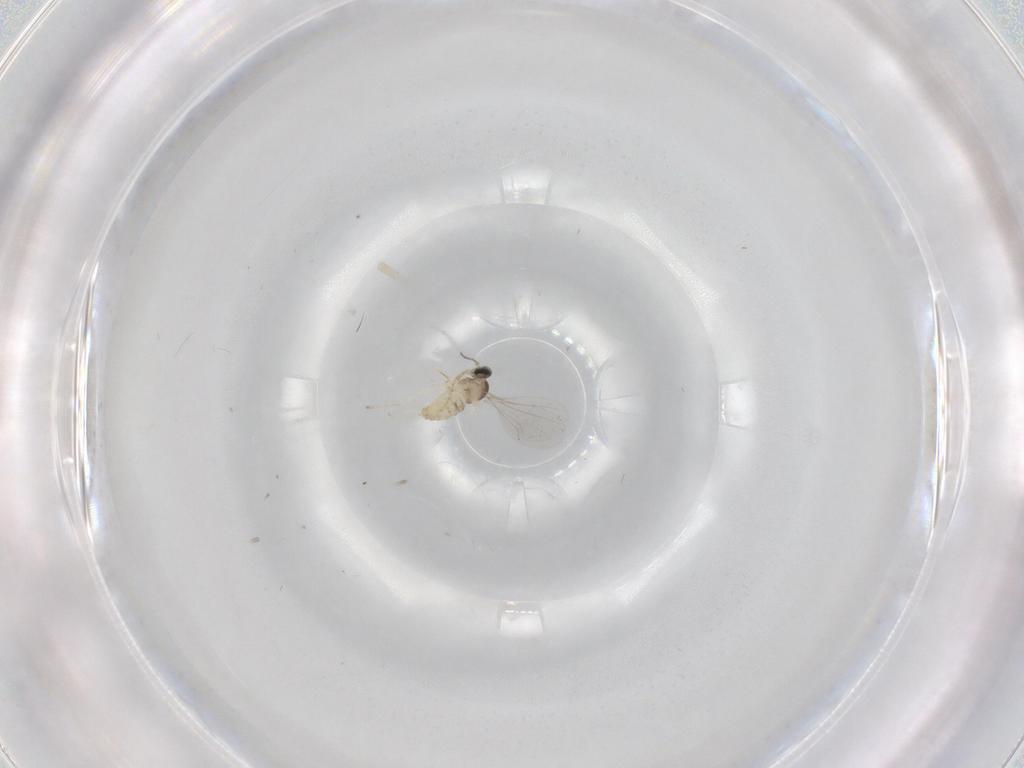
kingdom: Animalia
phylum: Arthropoda
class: Insecta
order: Diptera
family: Cecidomyiidae
